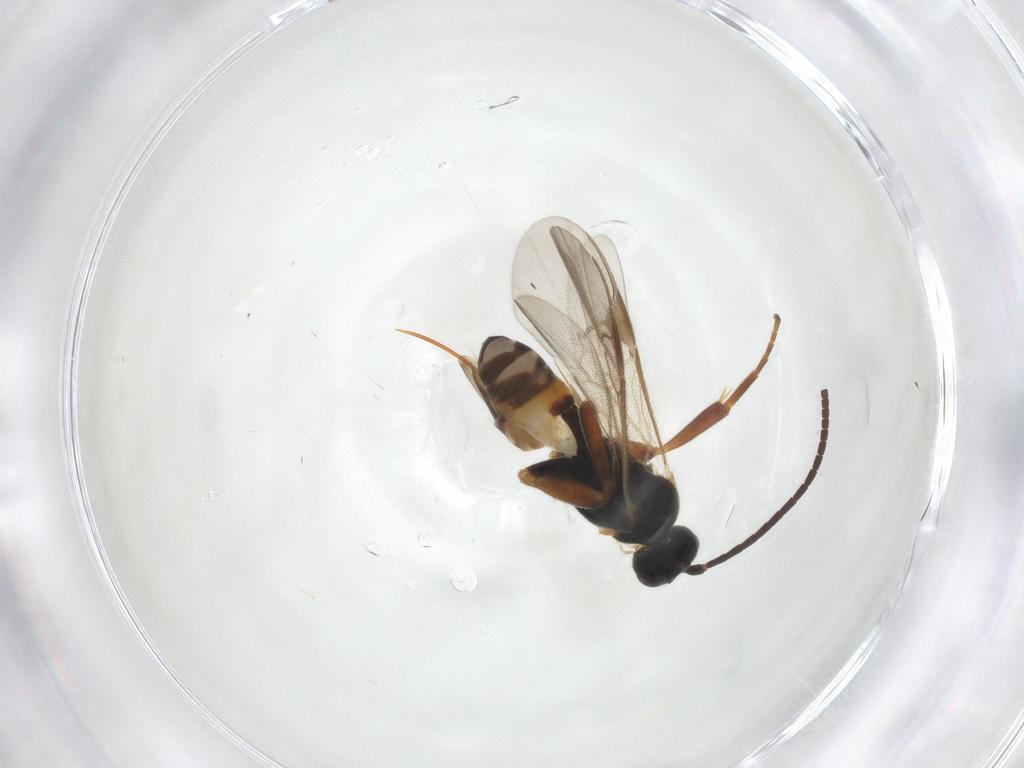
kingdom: Animalia
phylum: Arthropoda
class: Insecta
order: Hymenoptera
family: Braconidae
